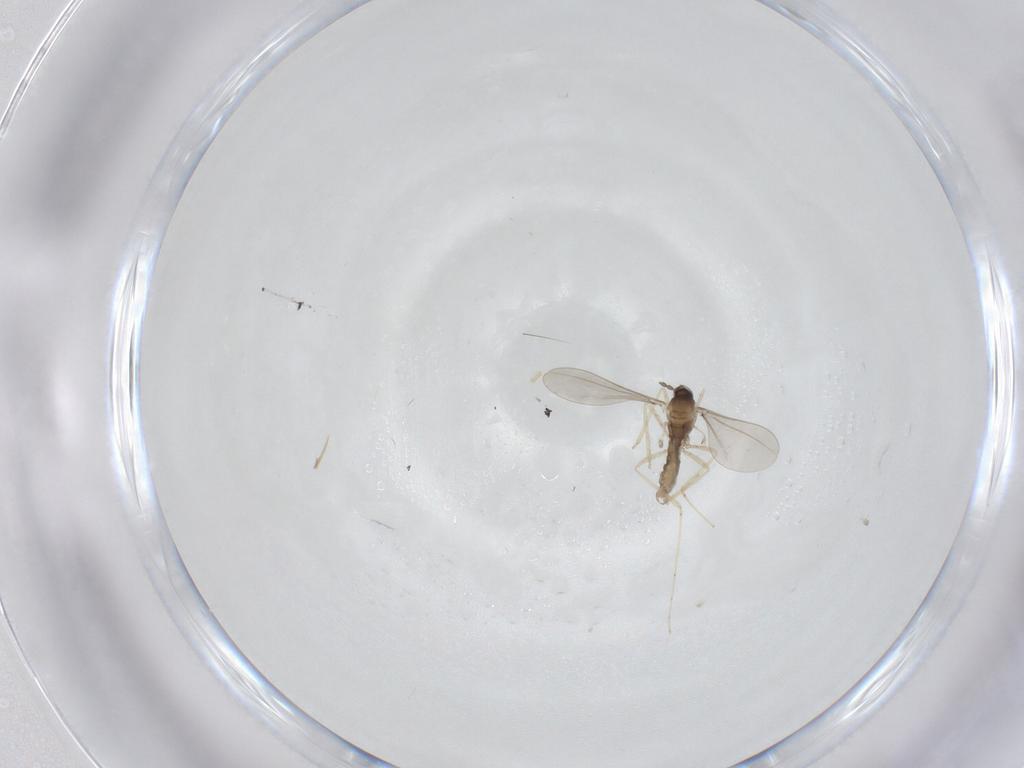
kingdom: Animalia
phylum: Arthropoda
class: Insecta
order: Diptera
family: Sciaridae
